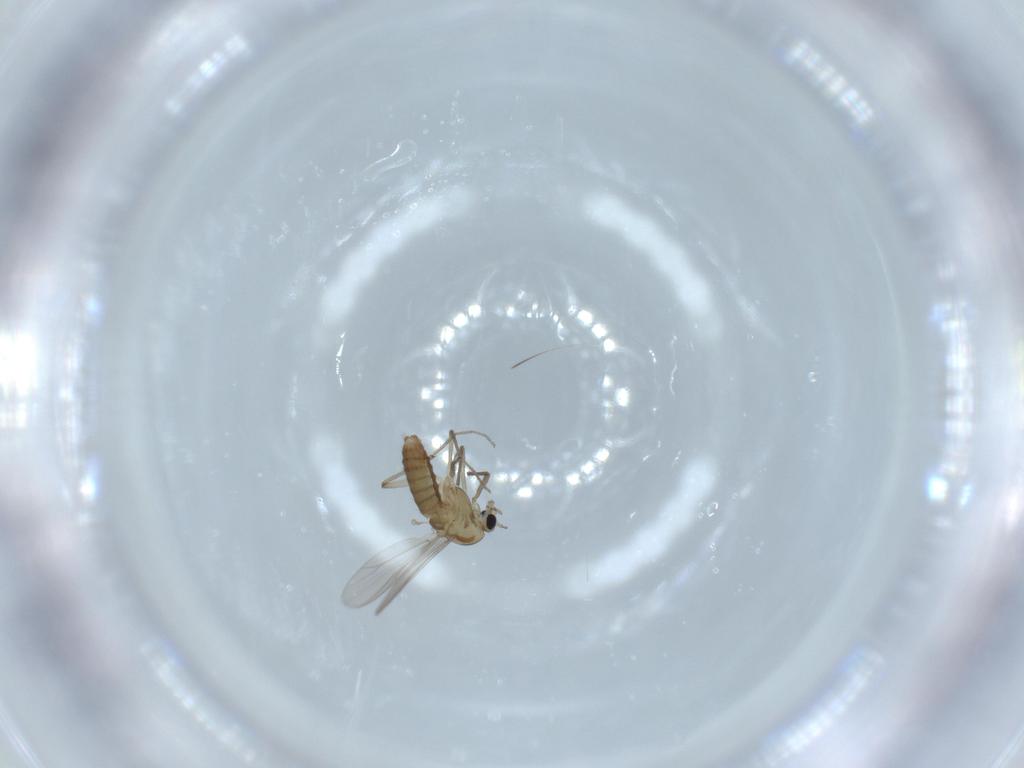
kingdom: Animalia
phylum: Arthropoda
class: Insecta
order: Diptera
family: Chironomidae
